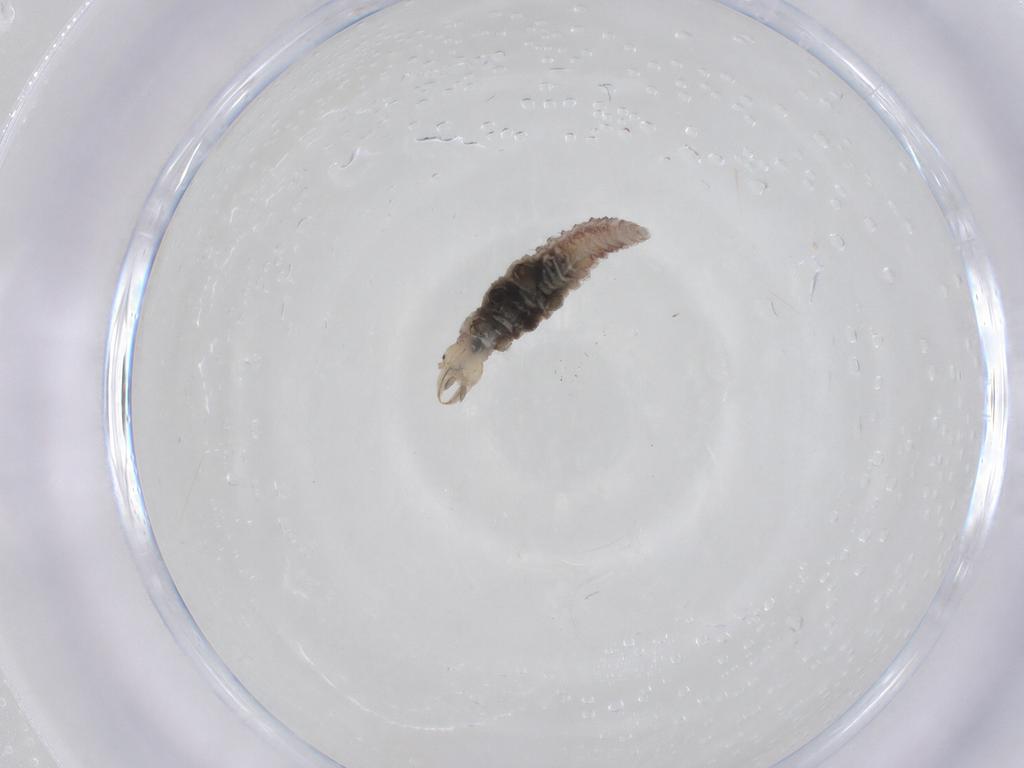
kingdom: Animalia
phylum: Arthropoda
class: Insecta
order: Neuroptera
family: Hemerobiidae
